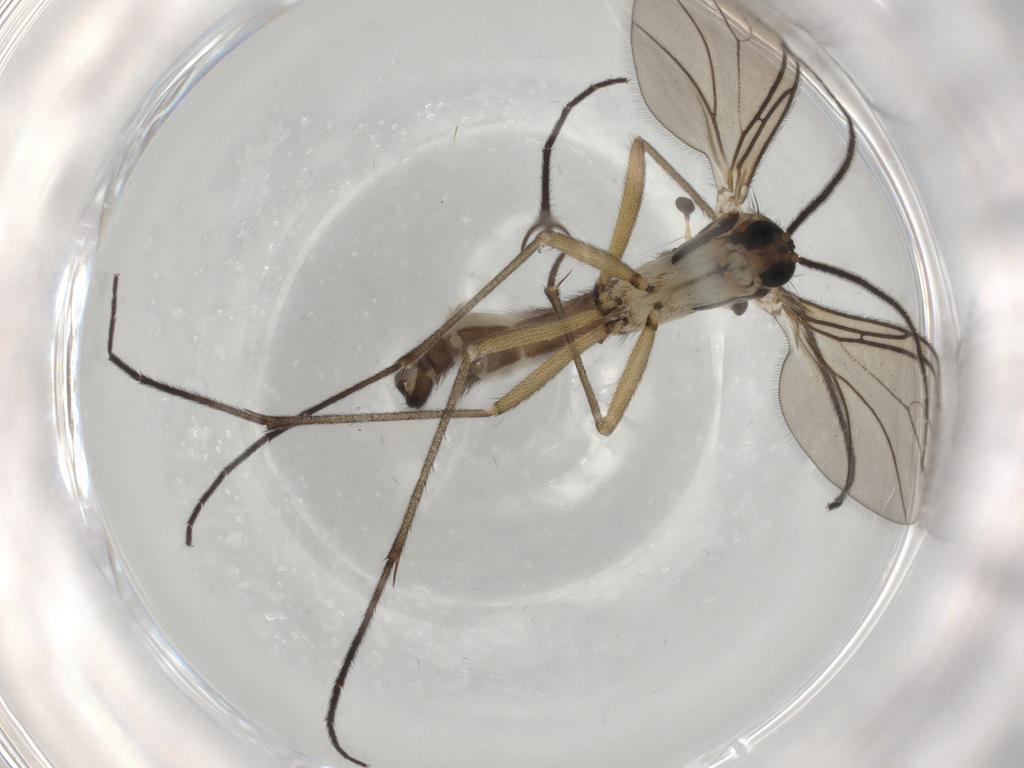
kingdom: Animalia
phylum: Arthropoda
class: Insecta
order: Diptera
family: Sciaridae
